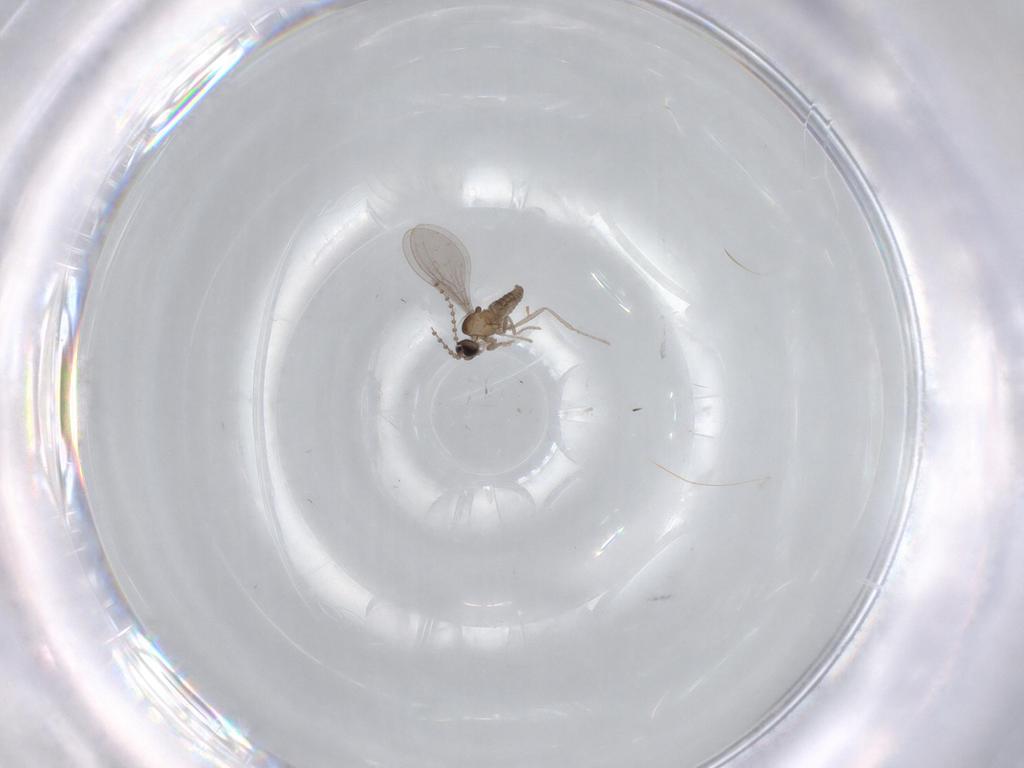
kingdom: Animalia
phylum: Arthropoda
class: Insecta
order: Diptera
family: Cecidomyiidae
